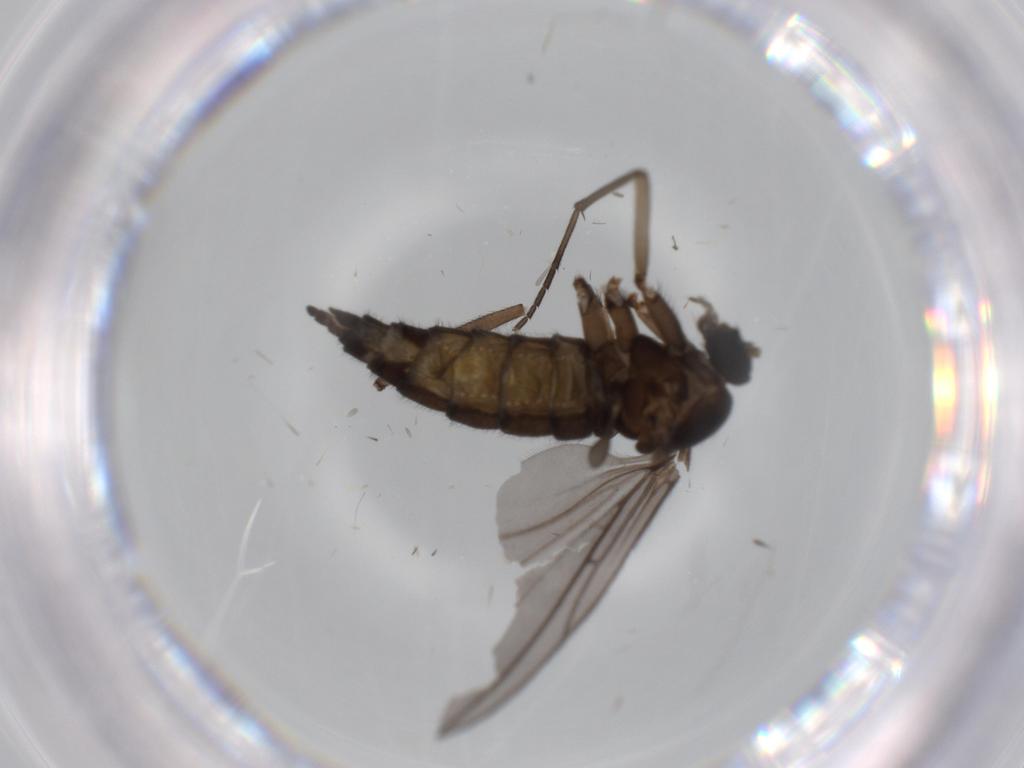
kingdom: Animalia
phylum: Arthropoda
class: Insecta
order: Diptera
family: Sciaridae
